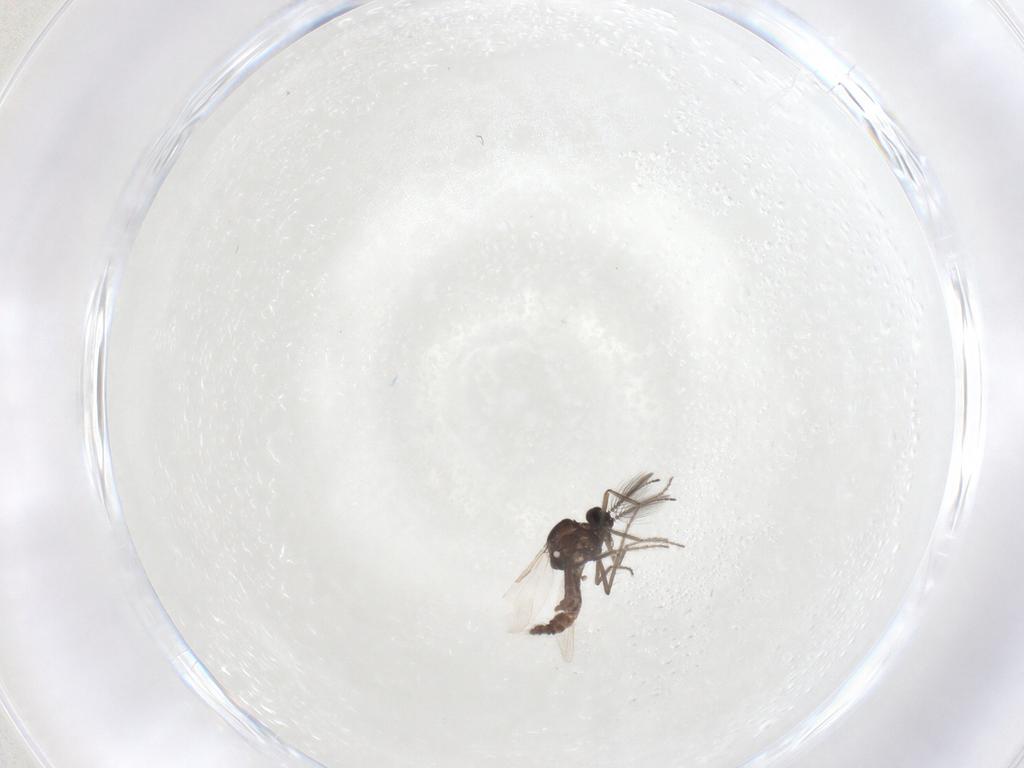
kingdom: Animalia
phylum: Arthropoda
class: Insecta
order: Diptera
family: Ceratopogonidae
